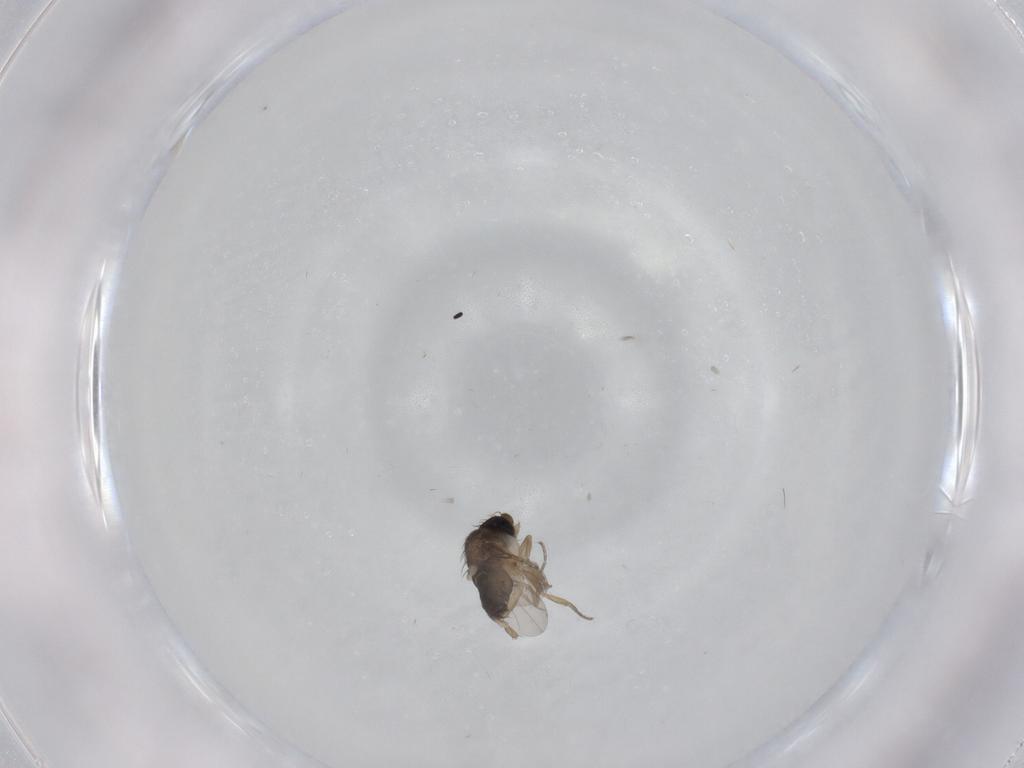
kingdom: Animalia
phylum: Arthropoda
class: Insecta
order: Diptera
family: Phoridae
